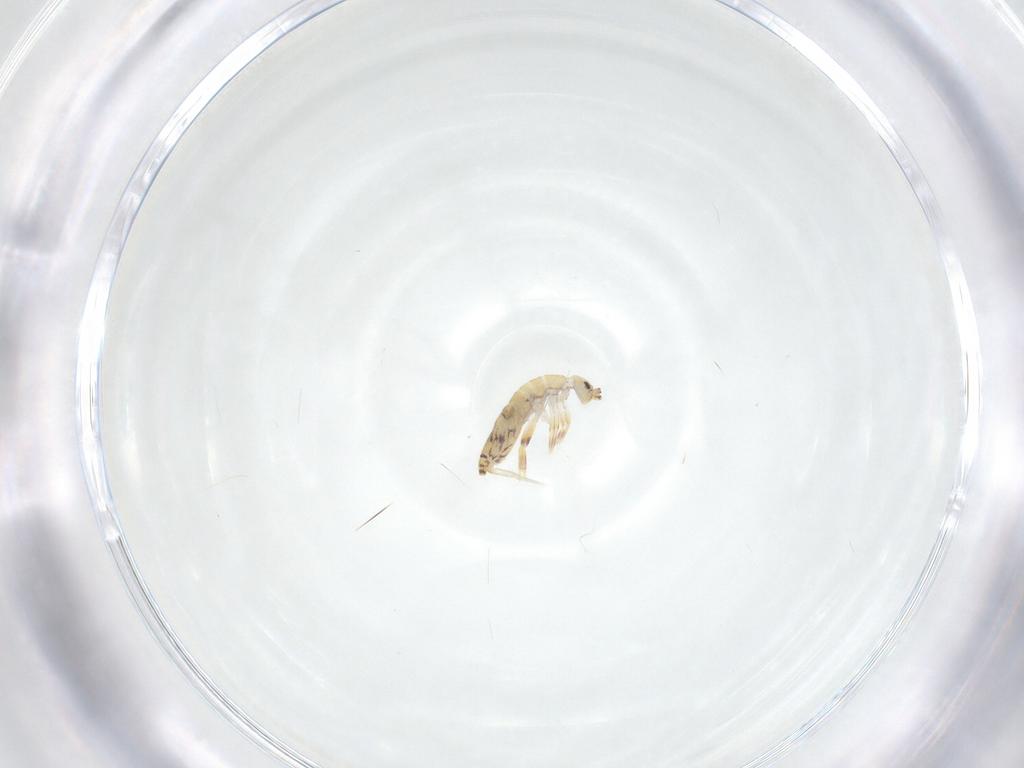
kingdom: Animalia
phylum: Arthropoda
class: Collembola
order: Entomobryomorpha
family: Entomobryidae
